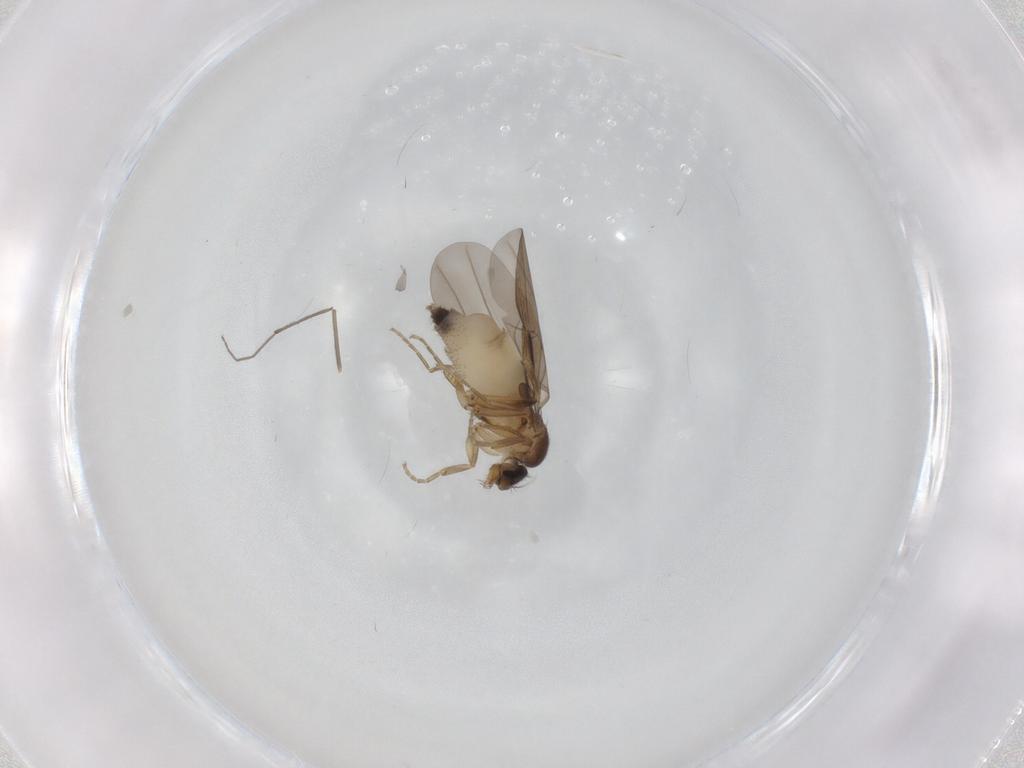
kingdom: Animalia
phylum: Arthropoda
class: Insecta
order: Diptera
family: Phoridae
